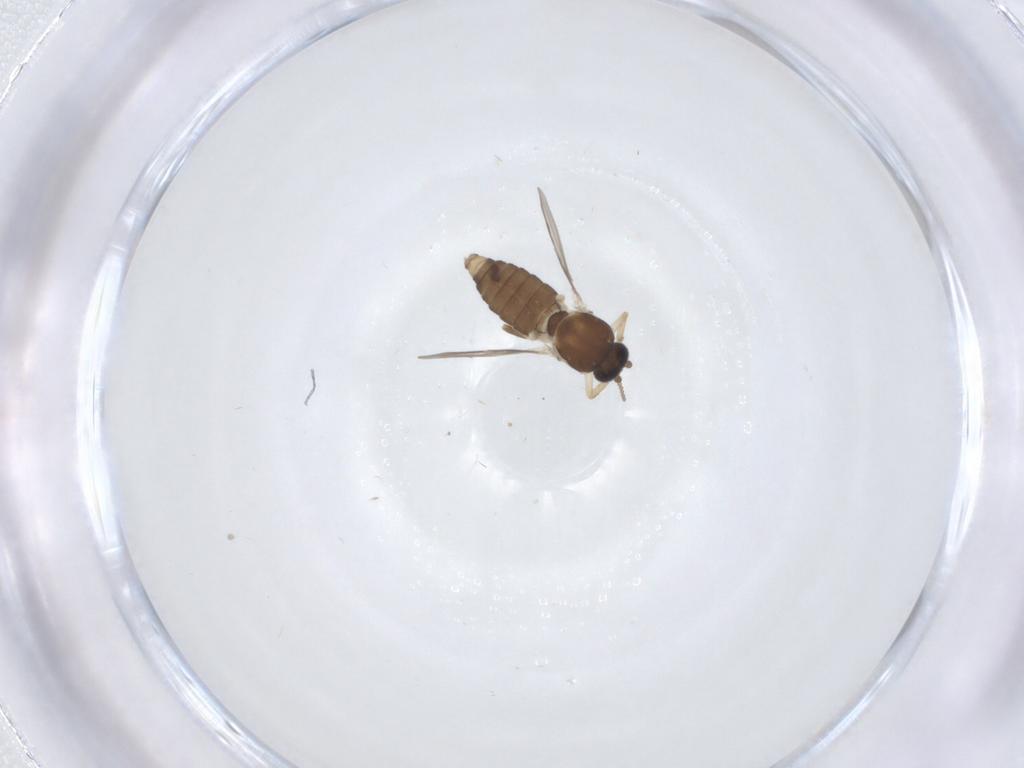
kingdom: Animalia
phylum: Arthropoda
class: Insecta
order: Diptera
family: Ceratopogonidae
